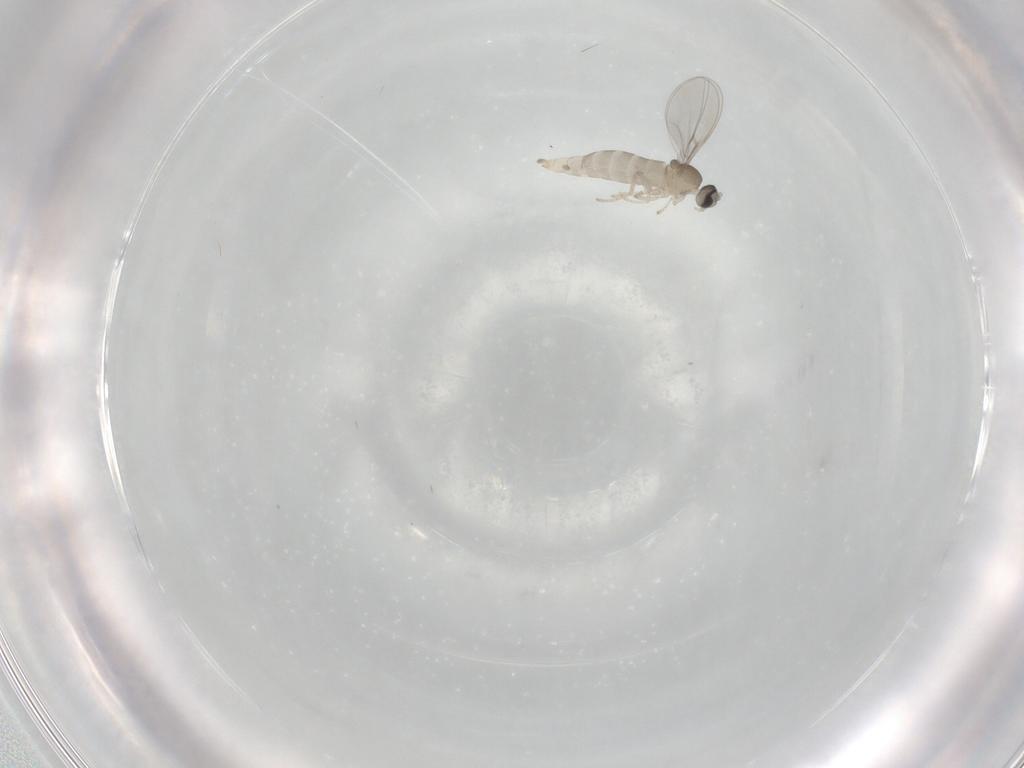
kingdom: Animalia
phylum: Arthropoda
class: Insecta
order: Diptera
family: Cecidomyiidae
